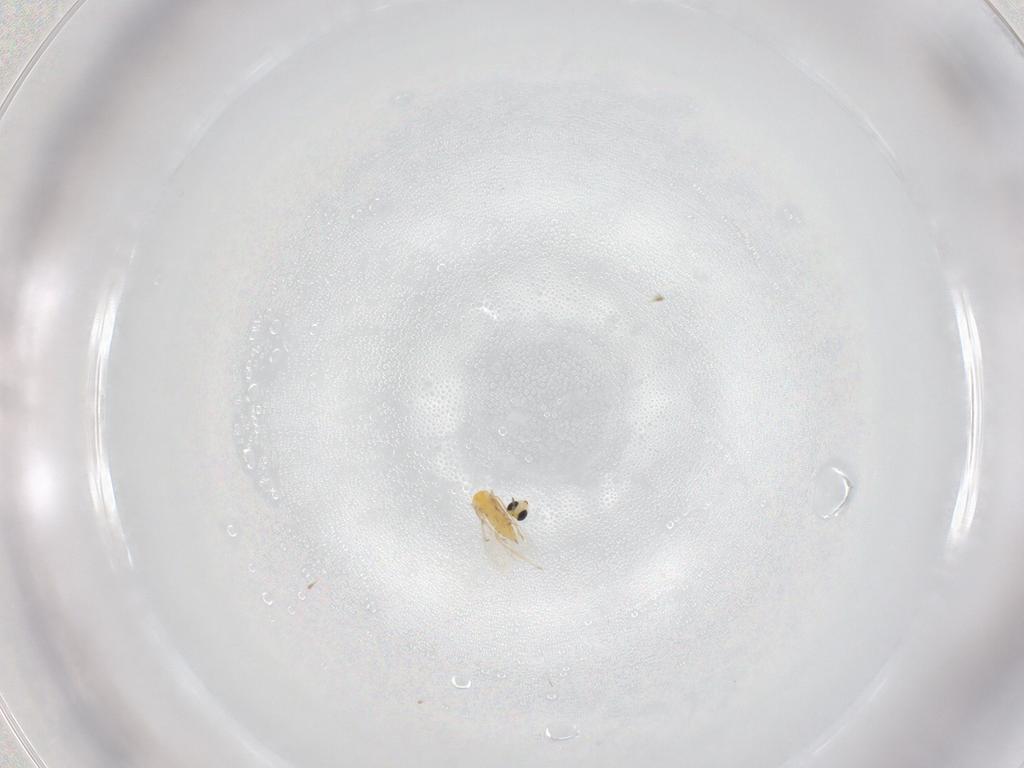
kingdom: Animalia
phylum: Arthropoda
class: Insecta
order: Hymenoptera
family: Trichogrammatidae
